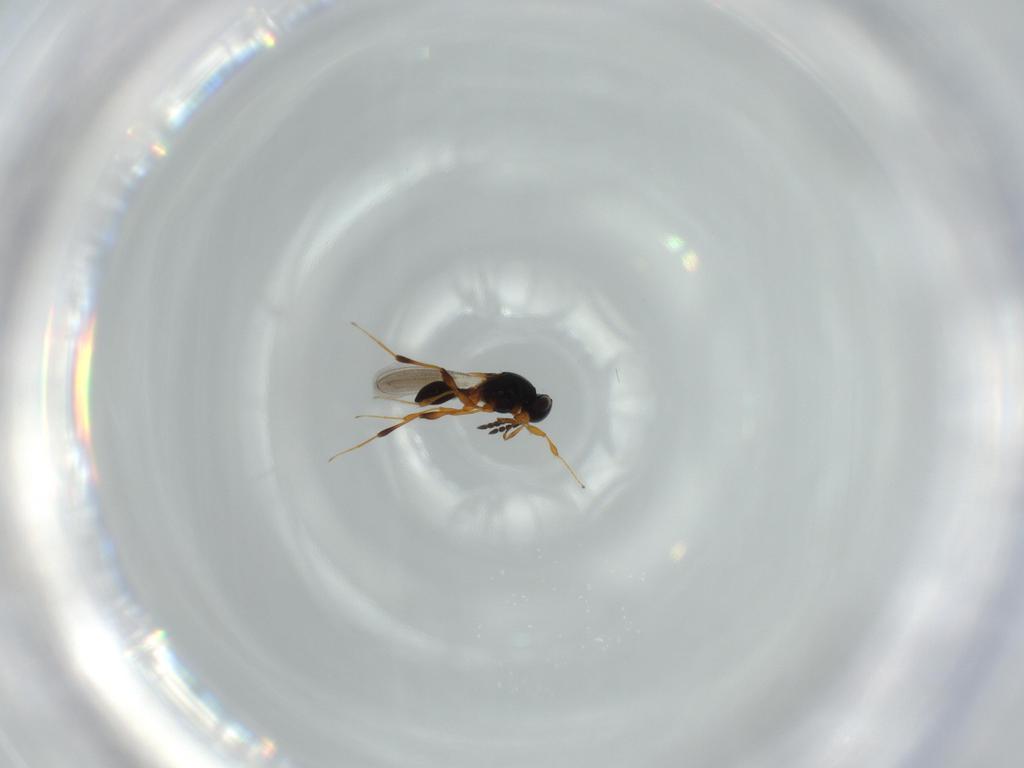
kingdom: Animalia
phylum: Arthropoda
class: Insecta
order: Hymenoptera
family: Platygastridae
